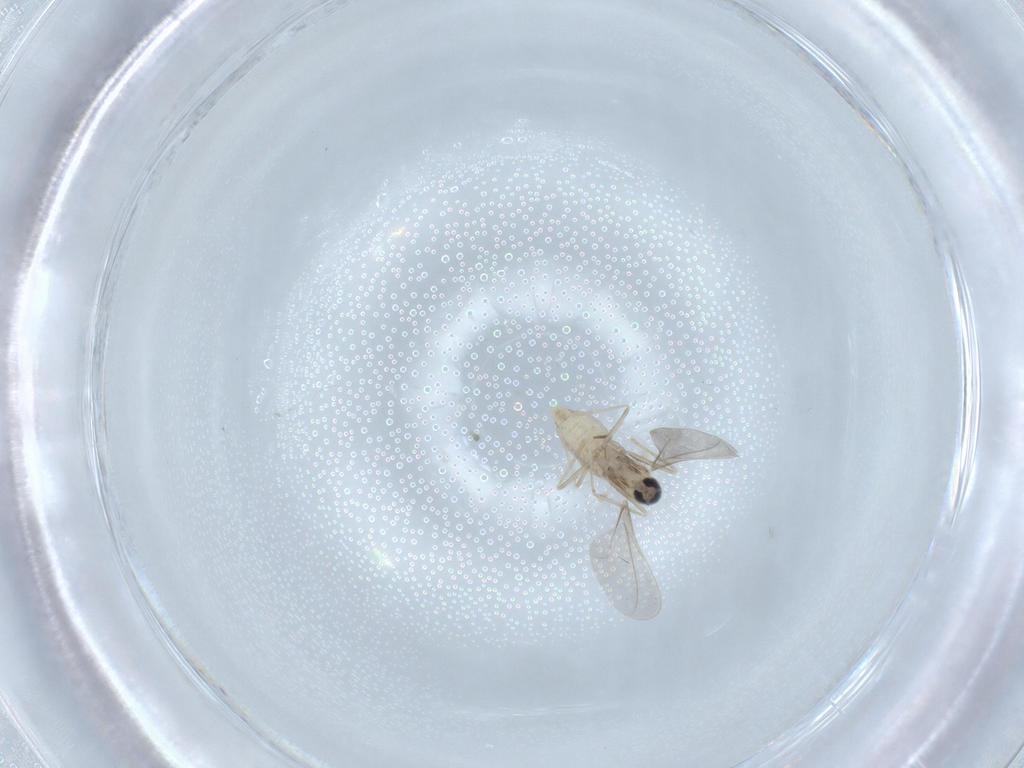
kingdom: Animalia
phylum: Arthropoda
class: Insecta
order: Diptera
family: Cecidomyiidae
